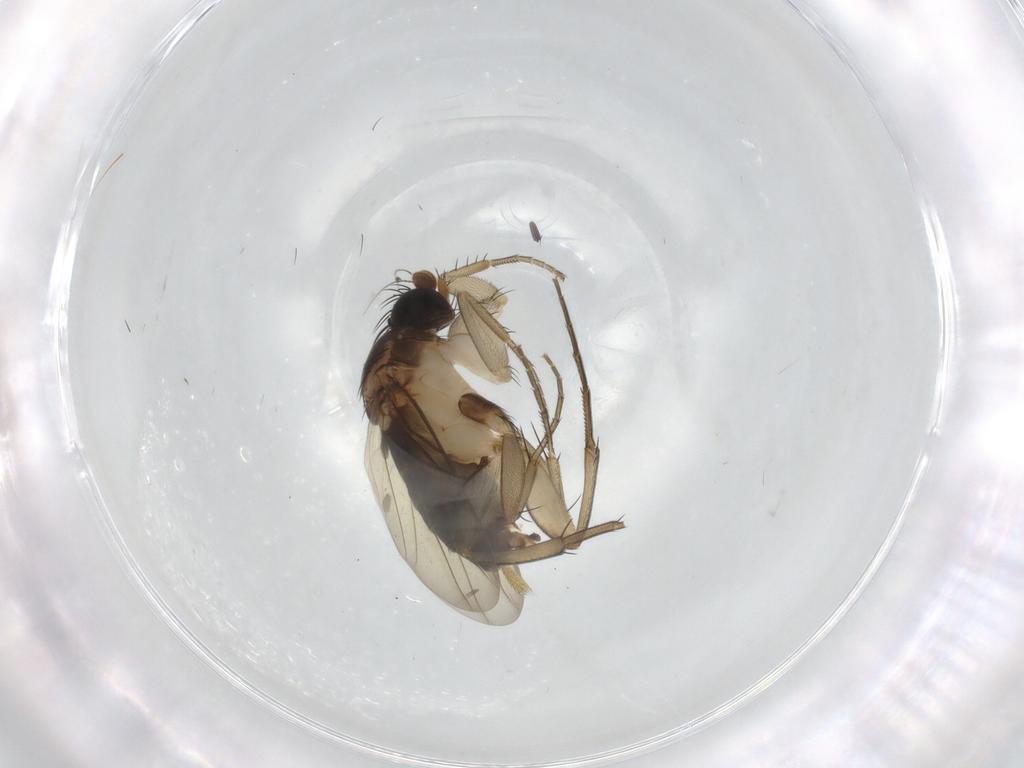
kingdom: Animalia
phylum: Arthropoda
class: Insecta
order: Diptera
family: Phoridae
